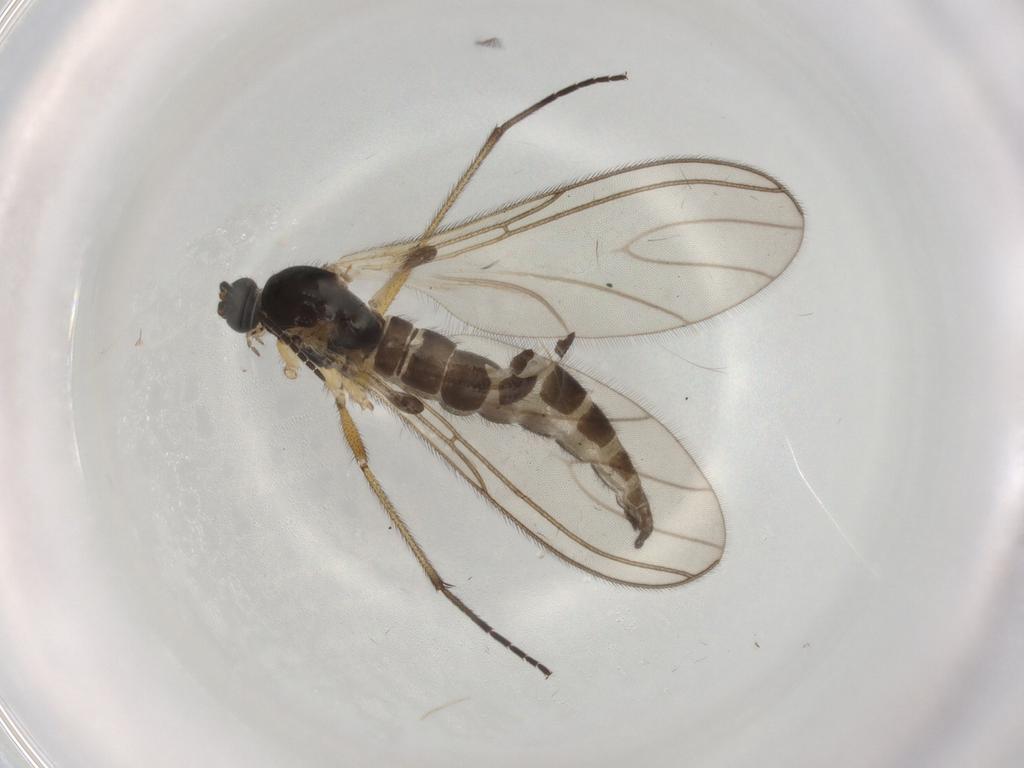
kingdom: Animalia
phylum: Arthropoda
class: Insecta
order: Diptera
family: Sciaridae
